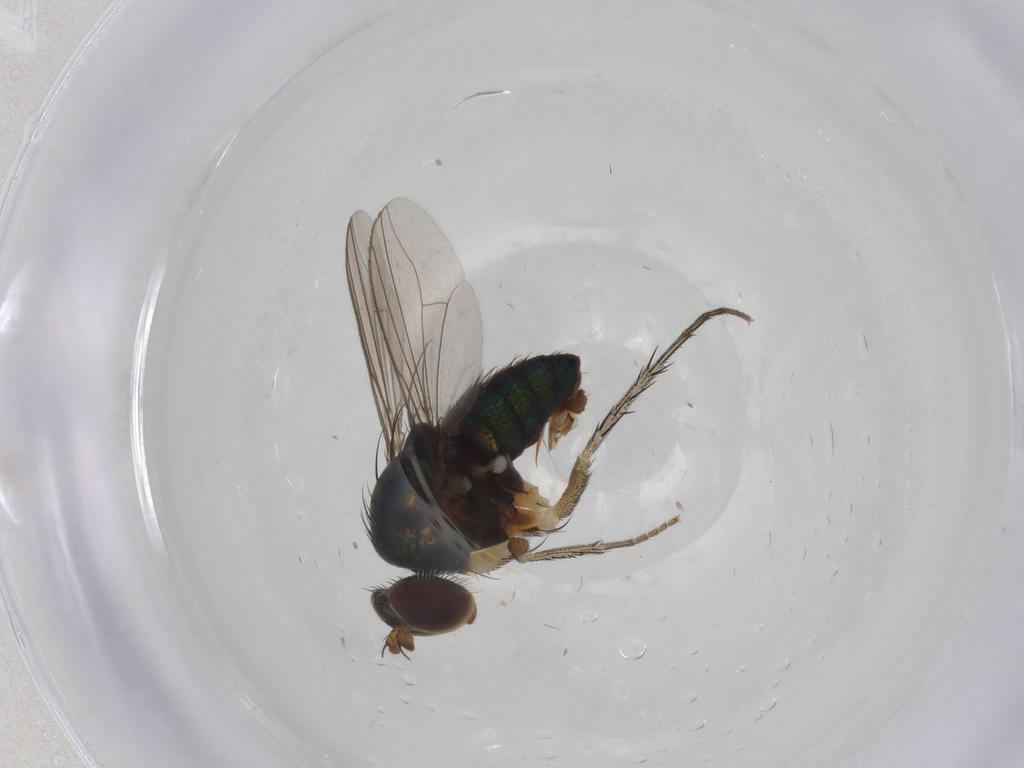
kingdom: Animalia
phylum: Arthropoda
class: Insecta
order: Diptera
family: Dolichopodidae
